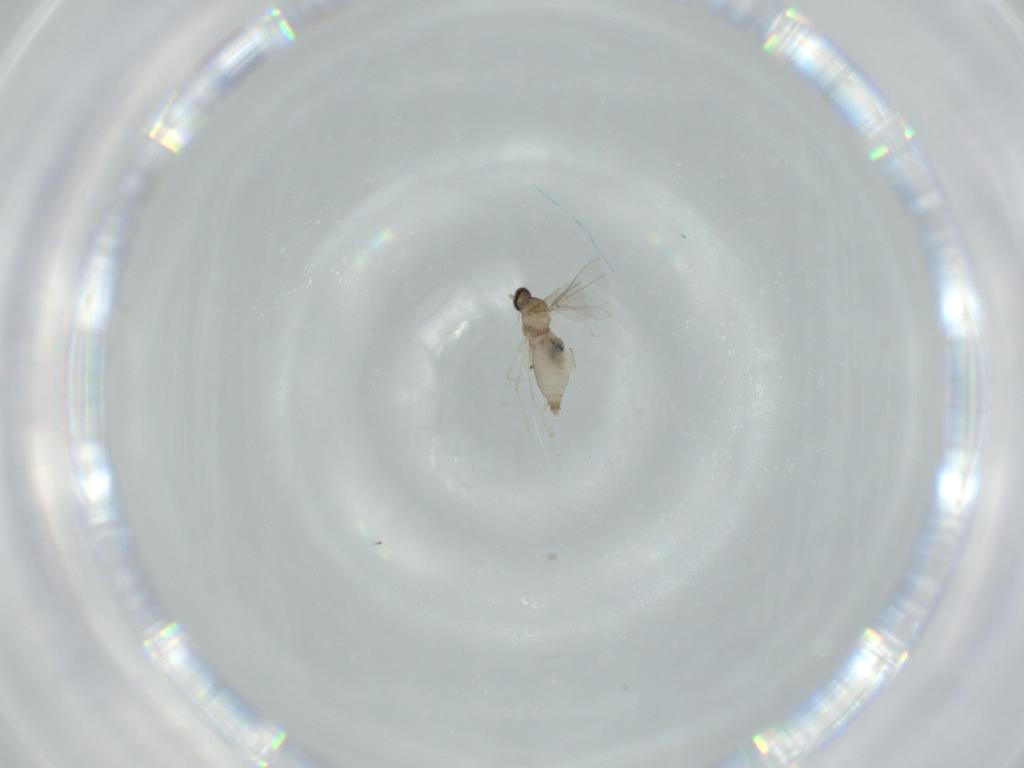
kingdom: Animalia
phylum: Arthropoda
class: Insecta
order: Diptera
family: Cecidomyiidae
